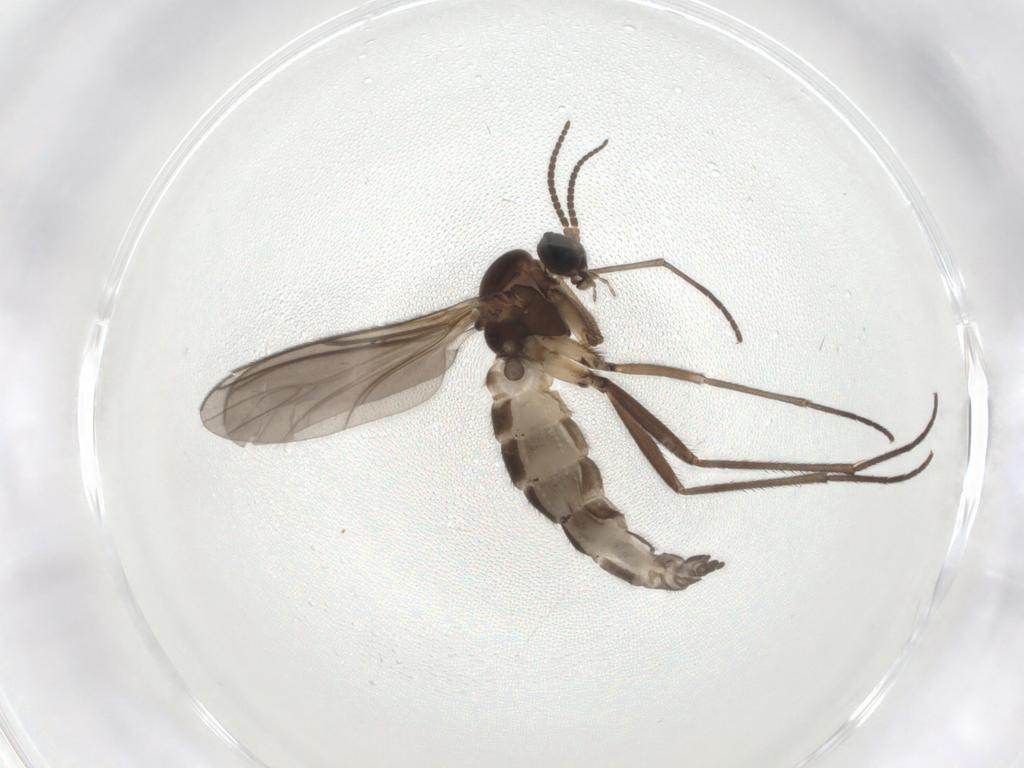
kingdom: Animalia
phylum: Arthropoda
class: Insecta
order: Diptera
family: Sciaridae
